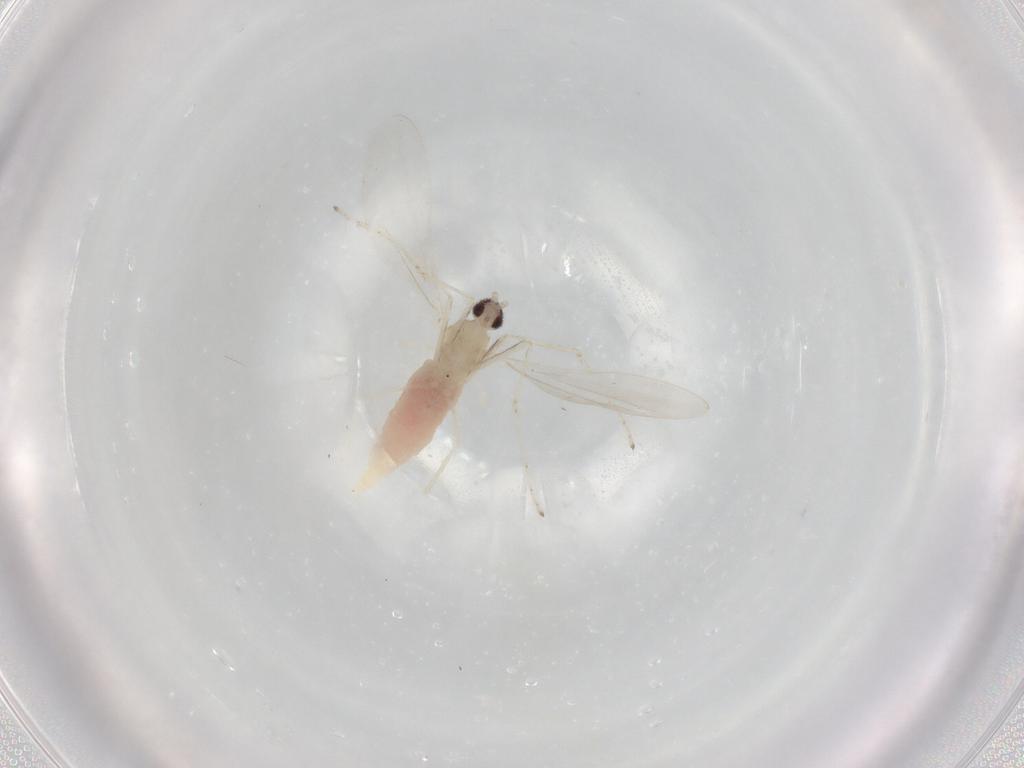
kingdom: Animalia
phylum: Arthropoda
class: Insecta
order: Diptera
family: Cecidomyiidae
